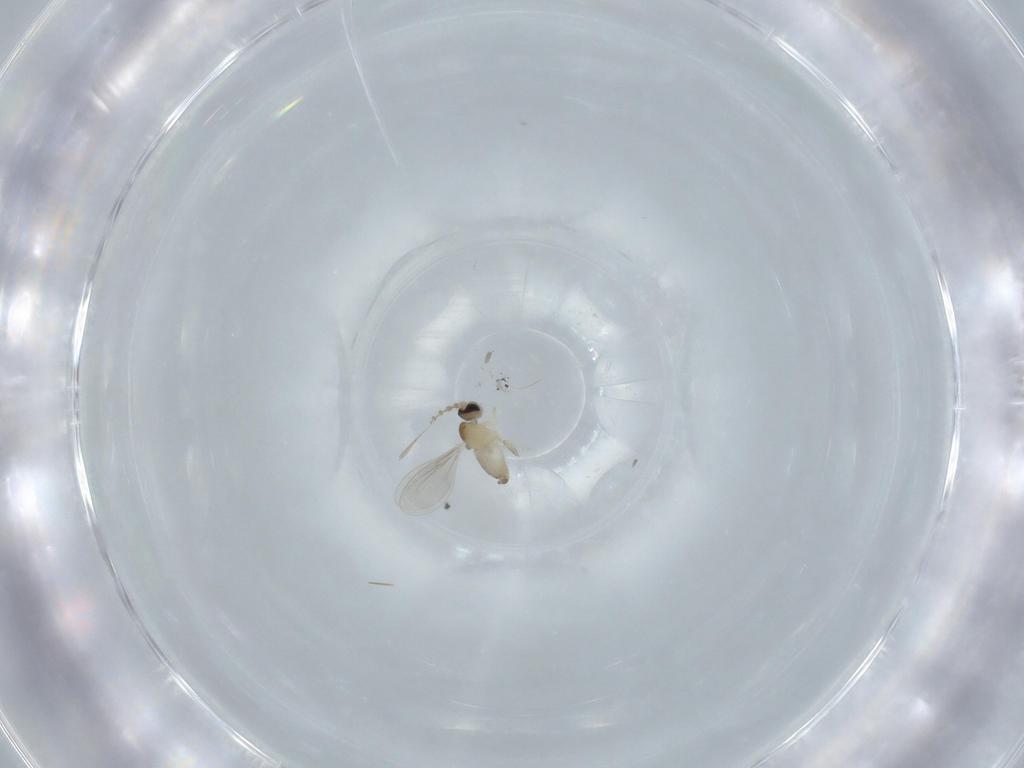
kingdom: Animalia
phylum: Arthropoda
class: Insecta
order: Diptera
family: Cecidomyiidae
